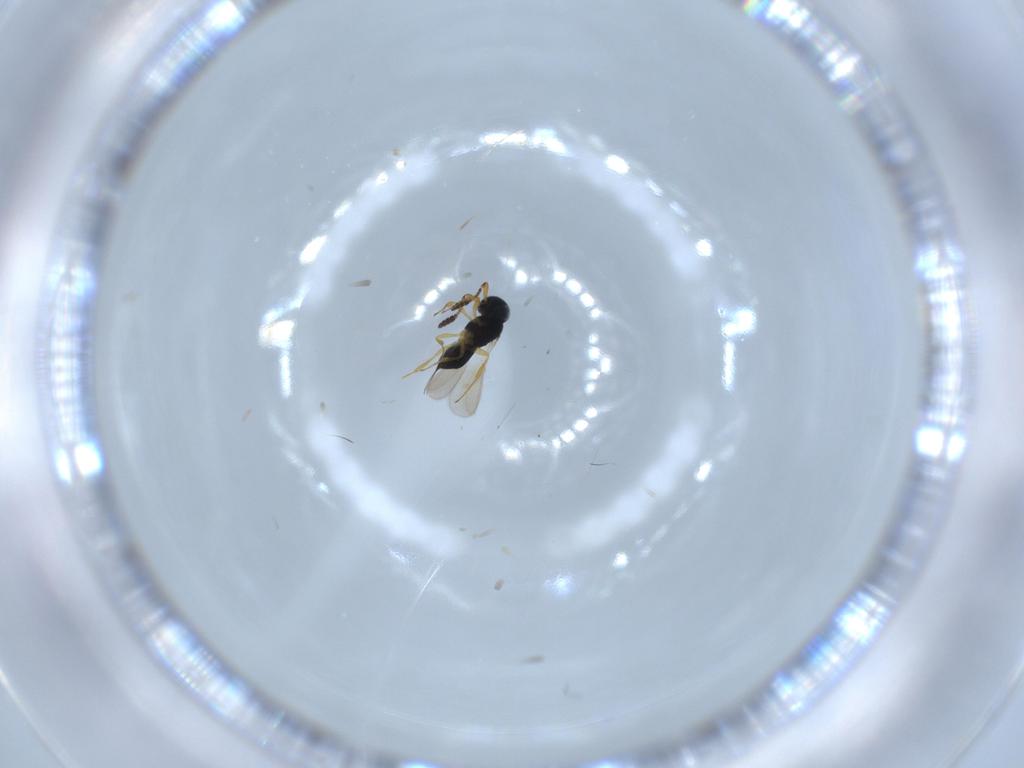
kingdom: Animalia
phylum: Arthropoda
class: Insecta
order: Hymenoptera
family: Scelionidae
